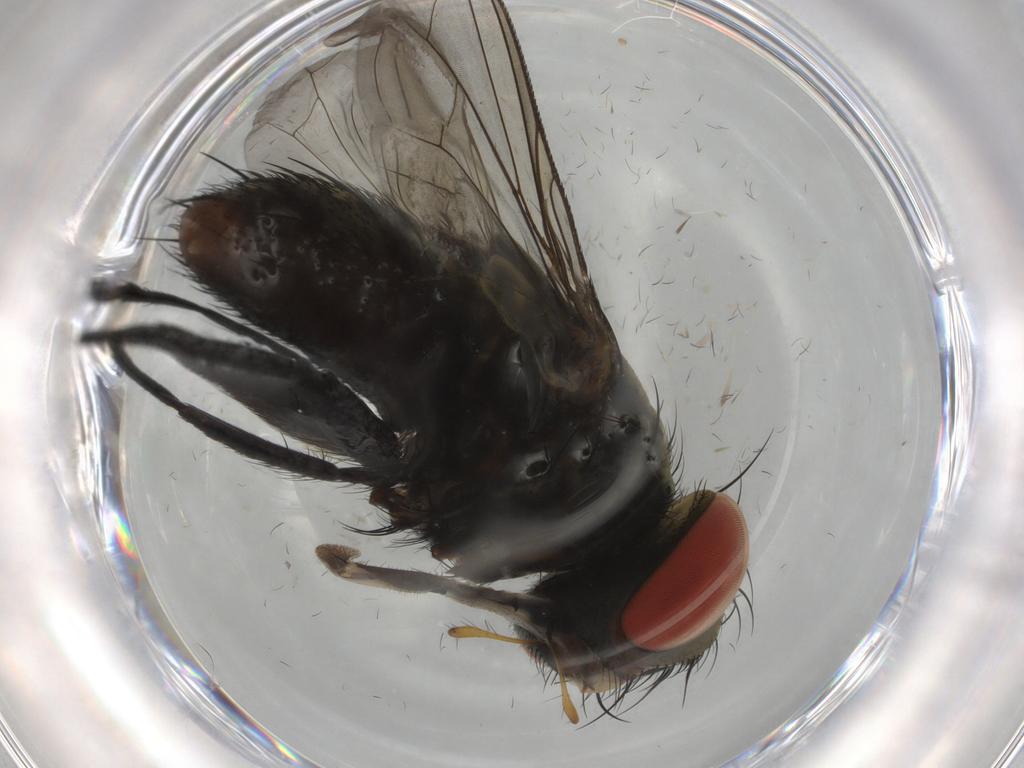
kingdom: Animalia
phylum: Arthropoda
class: Insecta
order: Diptera
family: Sarcophagidae
